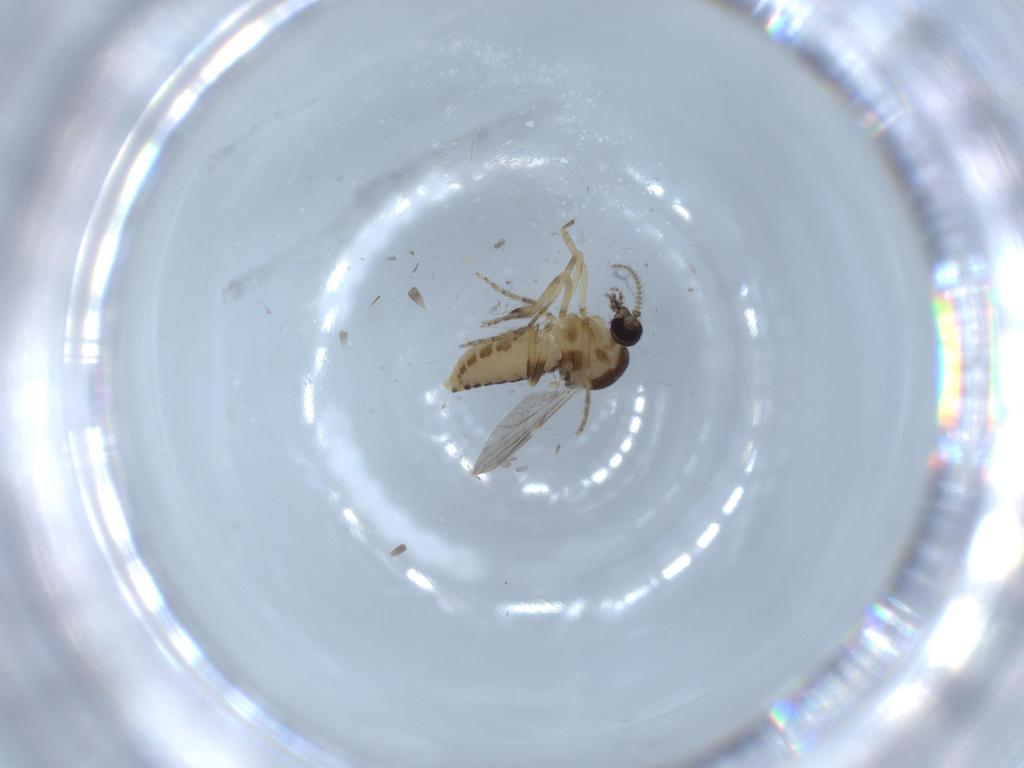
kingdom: Animalia
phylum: Arthropoda
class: Insecta
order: Diptera
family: Ceratopogonidae
